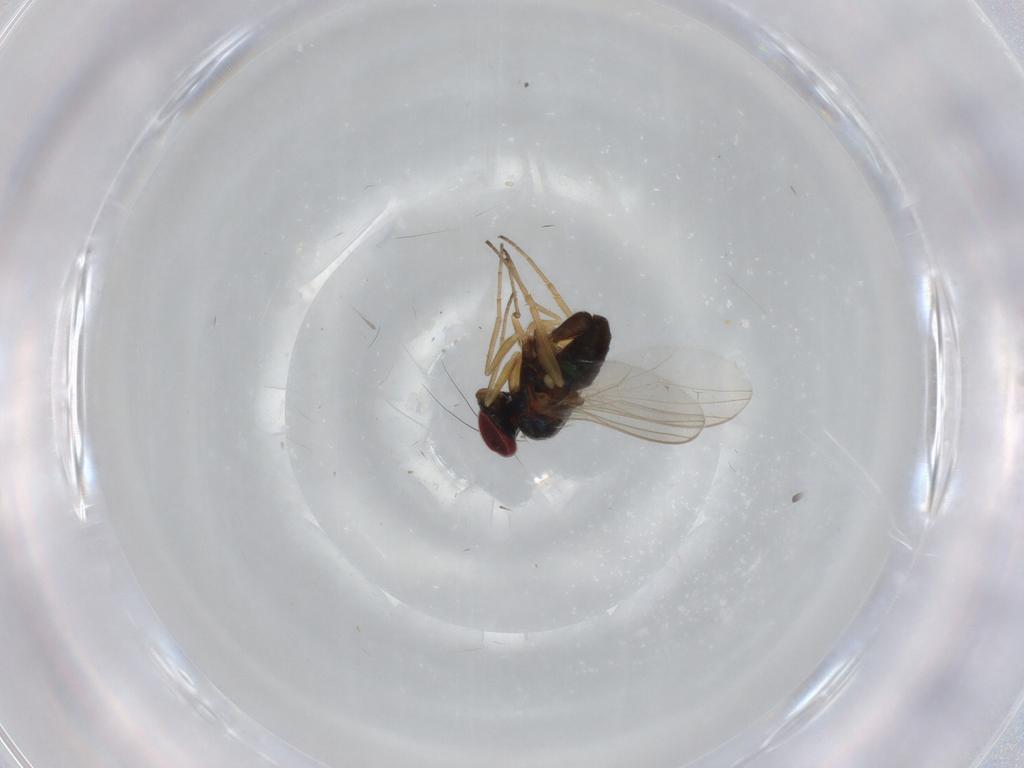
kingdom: Animalia
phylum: Arthropoda
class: Insecta
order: Diptera
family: Dolichopodidae
